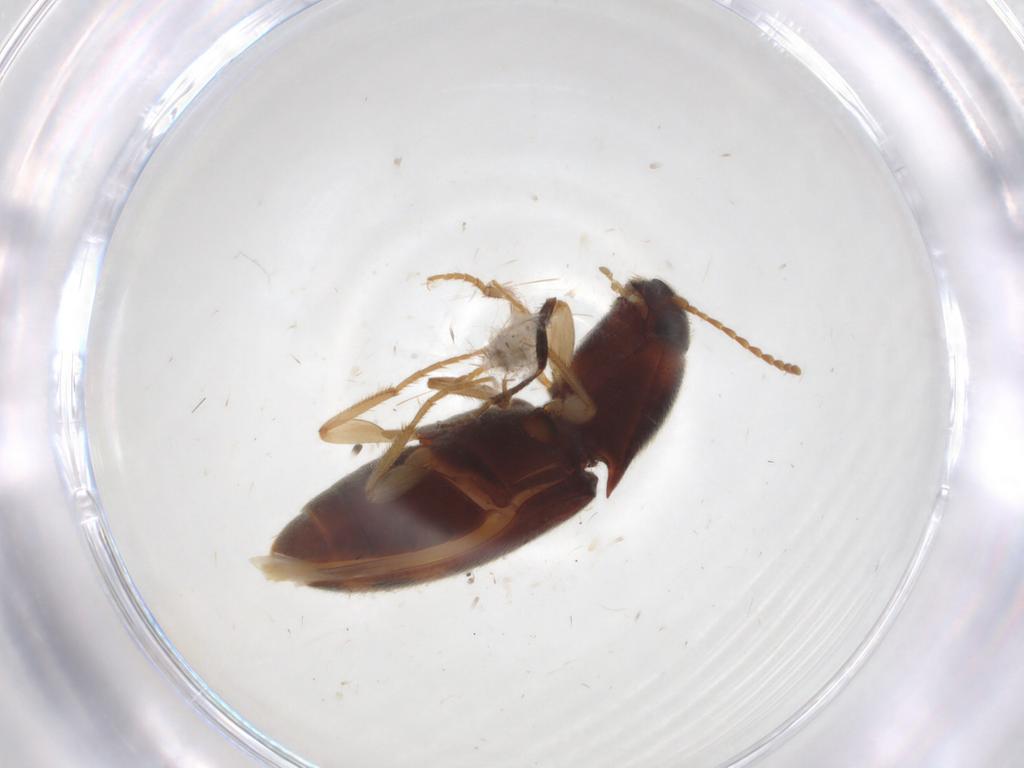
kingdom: Animalia
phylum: Arthropoda
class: Insecta
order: Coleoptera
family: Elateridae
